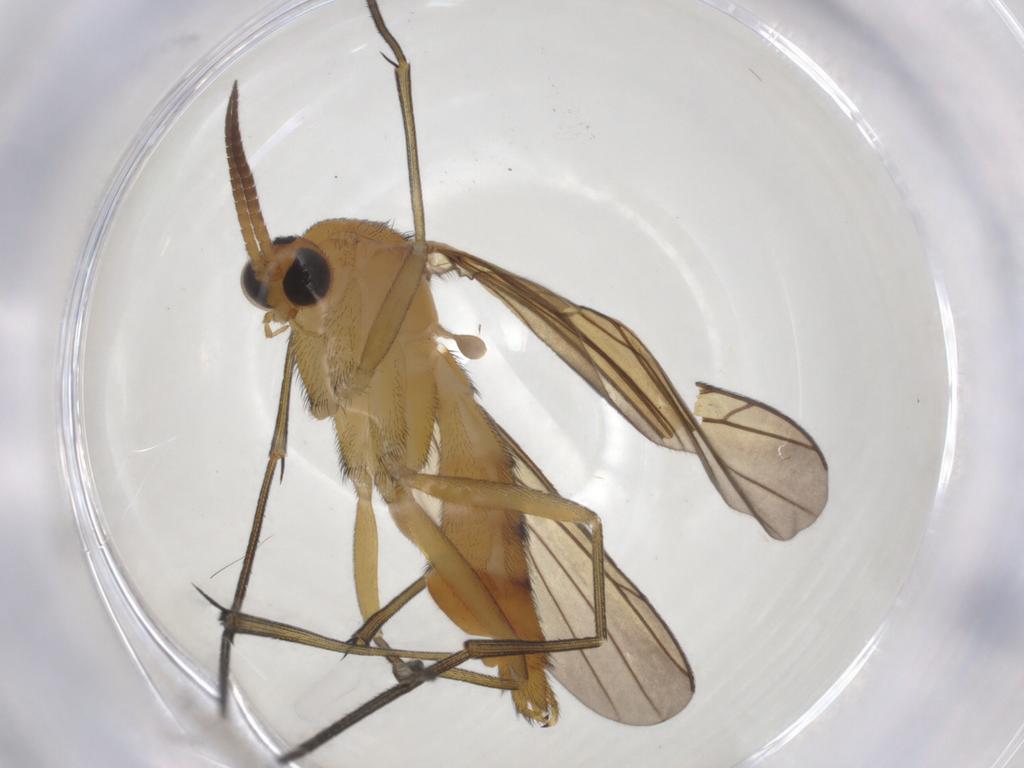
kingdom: Animalia
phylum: Arthropoda
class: Insecta
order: Diptera
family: Keroplatidae
